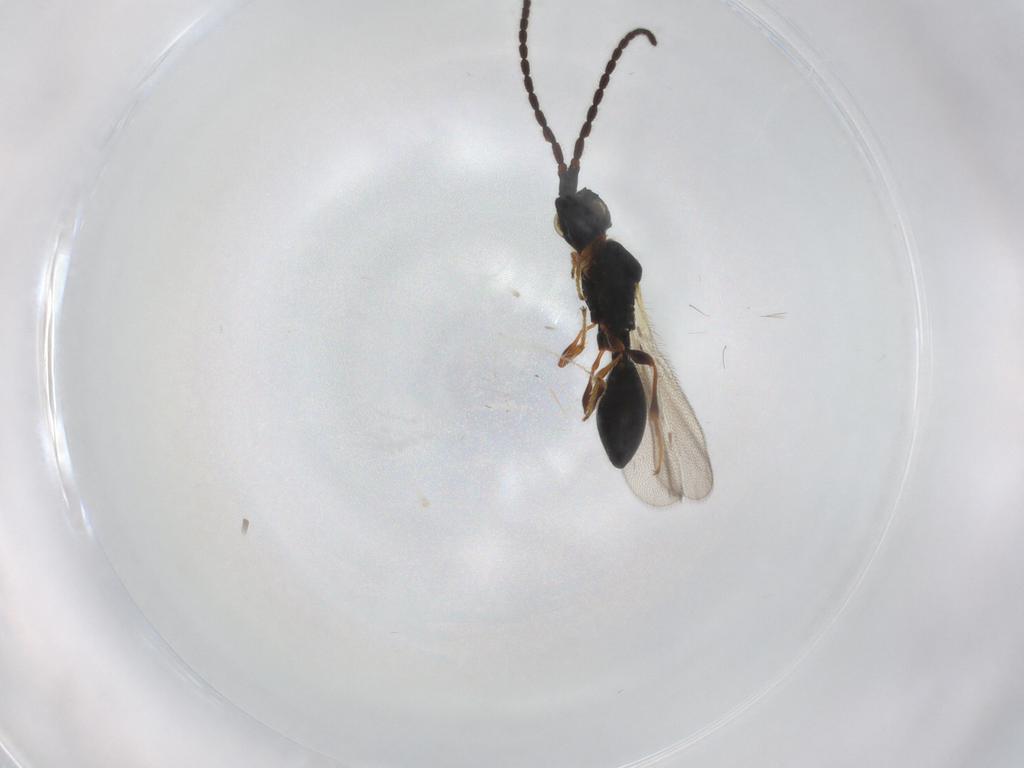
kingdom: Animalia
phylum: Arthropoda
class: Insecta
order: Hymenoptera
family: Diapriidae
